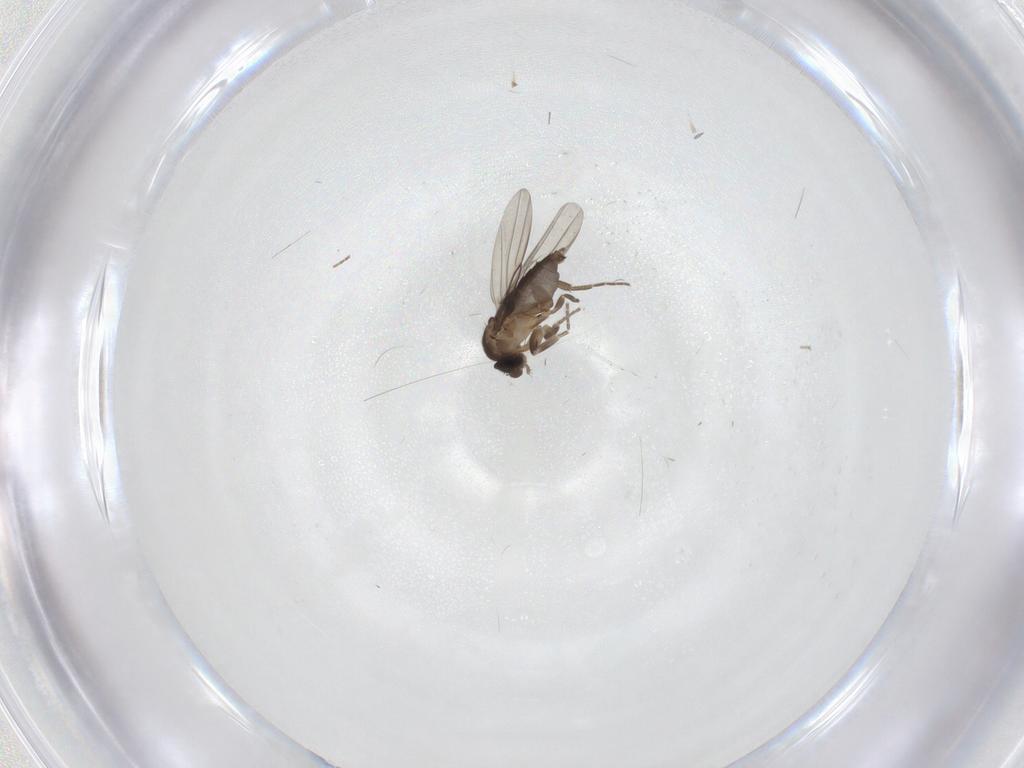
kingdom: Animalia
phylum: Arthropoda
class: Insecta
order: Diptera
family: Phoridae
